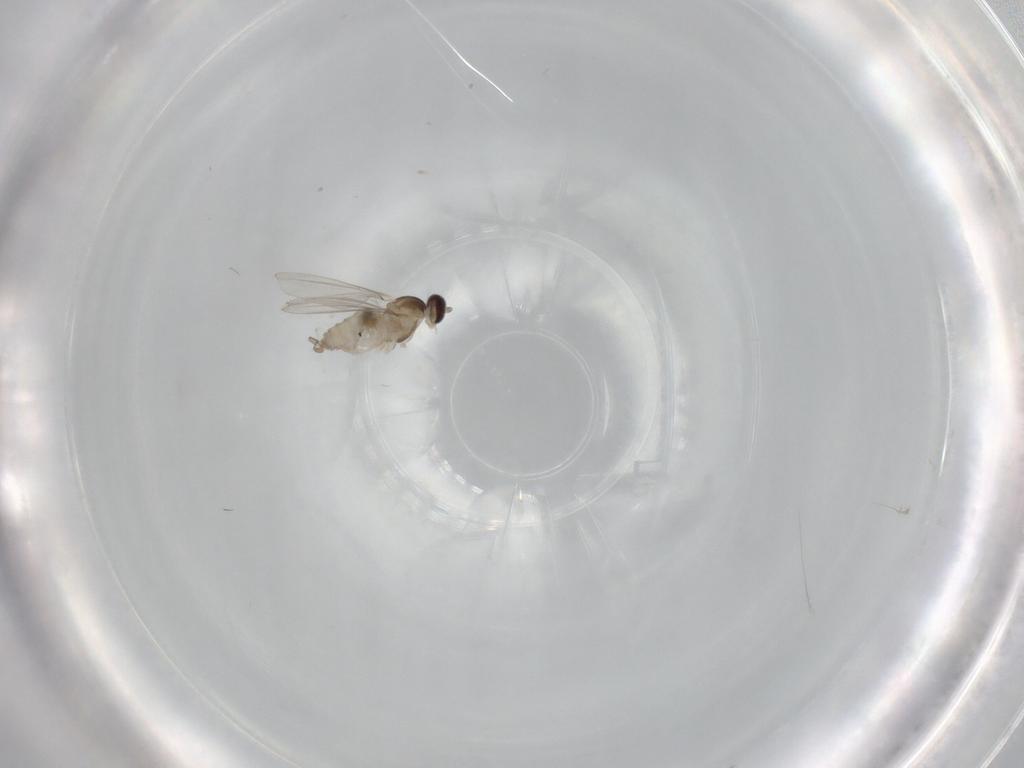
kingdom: Animalia
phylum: Arthropoda
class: Insecta
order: Diptera
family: Cecidomyiidae
